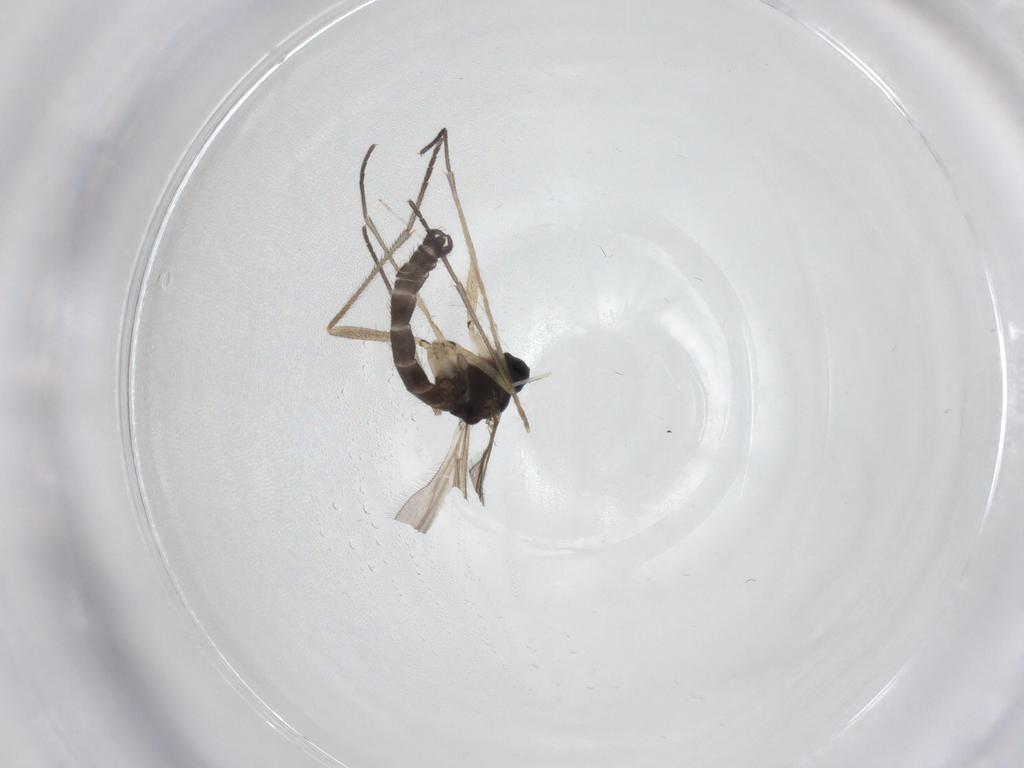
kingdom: Animalia
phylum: Arthropoda
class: Insecta
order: Diptera
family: Sciaridae
